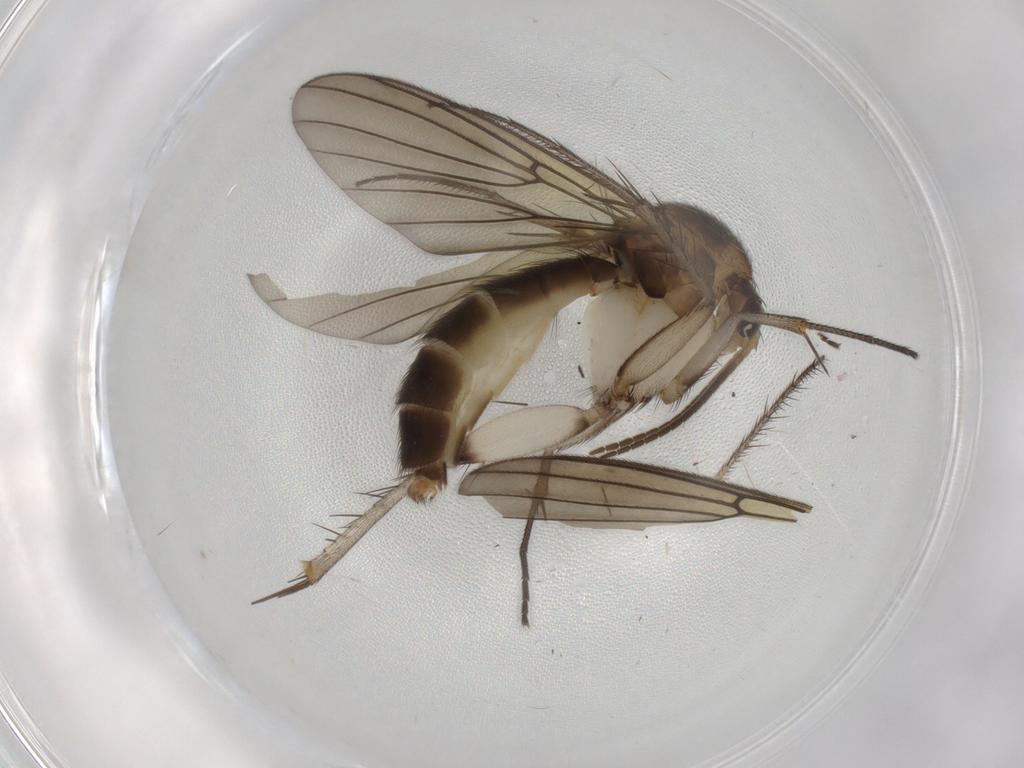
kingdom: Animalia
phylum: Arthropoda
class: Insecta
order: Diptera
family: Mycetophilidae
